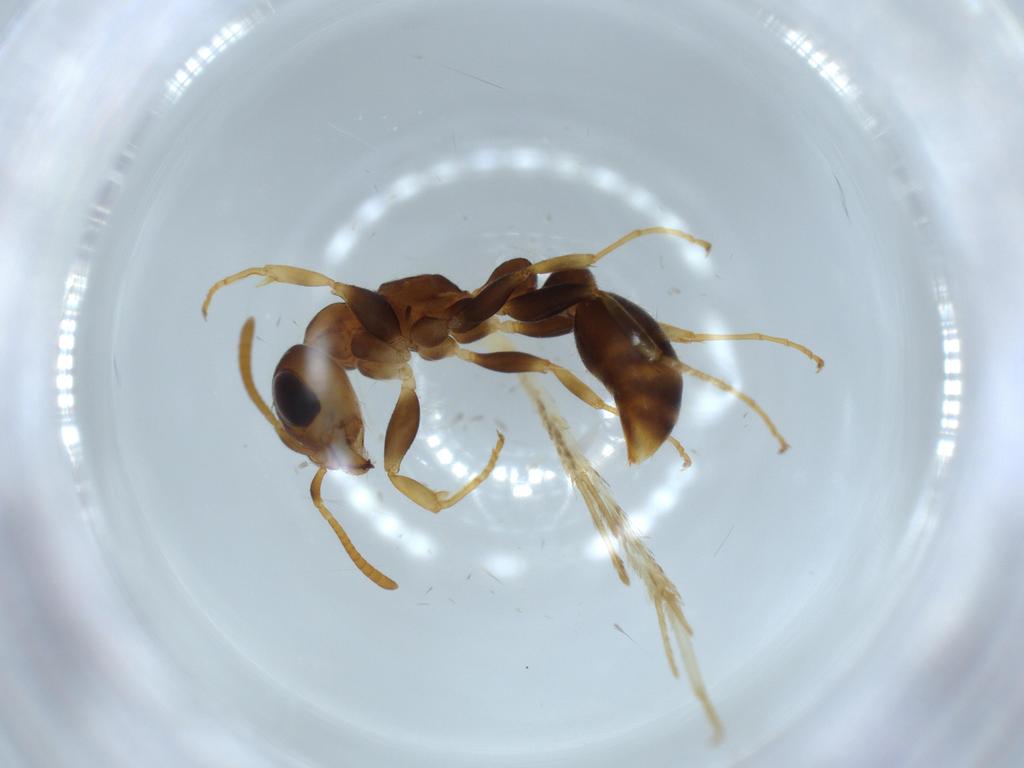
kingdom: Animalia
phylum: Arthropoda
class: Insecta
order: Hymenoptera
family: Formicidae
